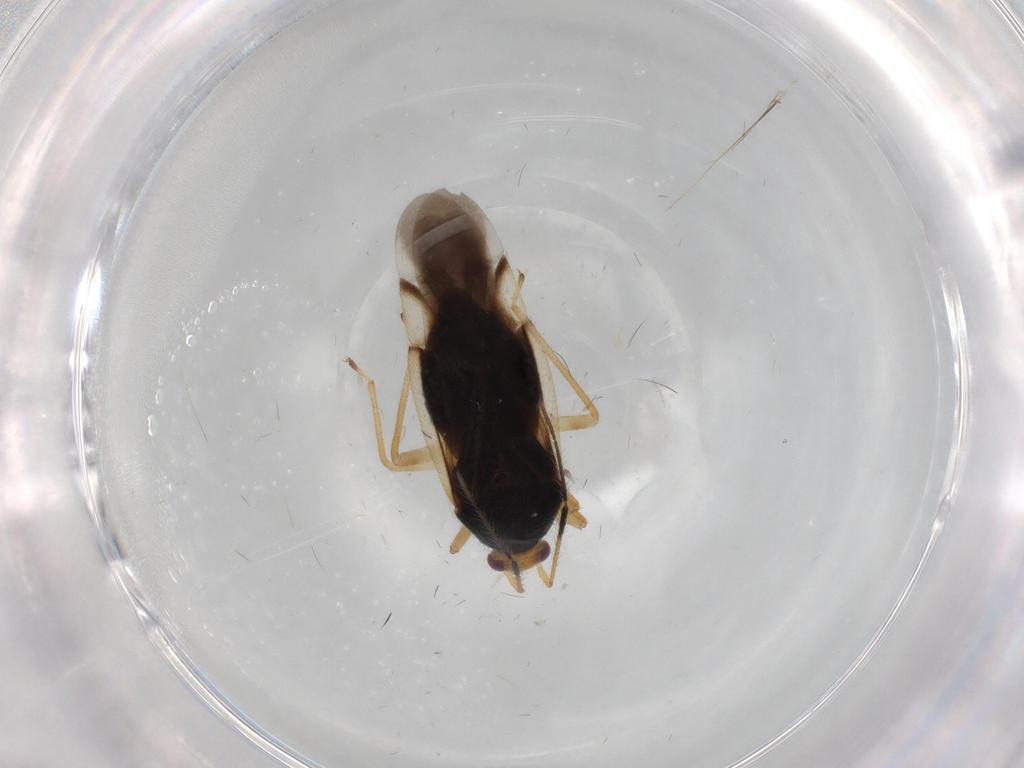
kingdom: Animalia
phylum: Arthropoda
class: Insecta
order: Hemiptera
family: Miridae
